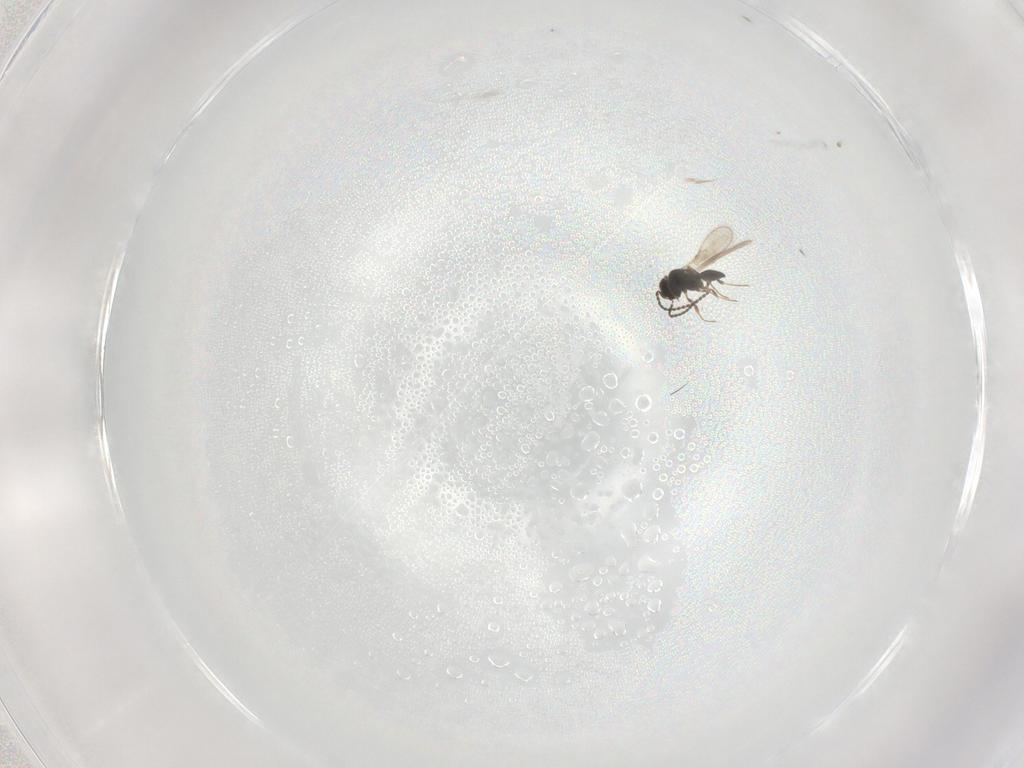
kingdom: Animalia
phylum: Arthropoda
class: Insecta
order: Hymenoptera
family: Scelionidae
